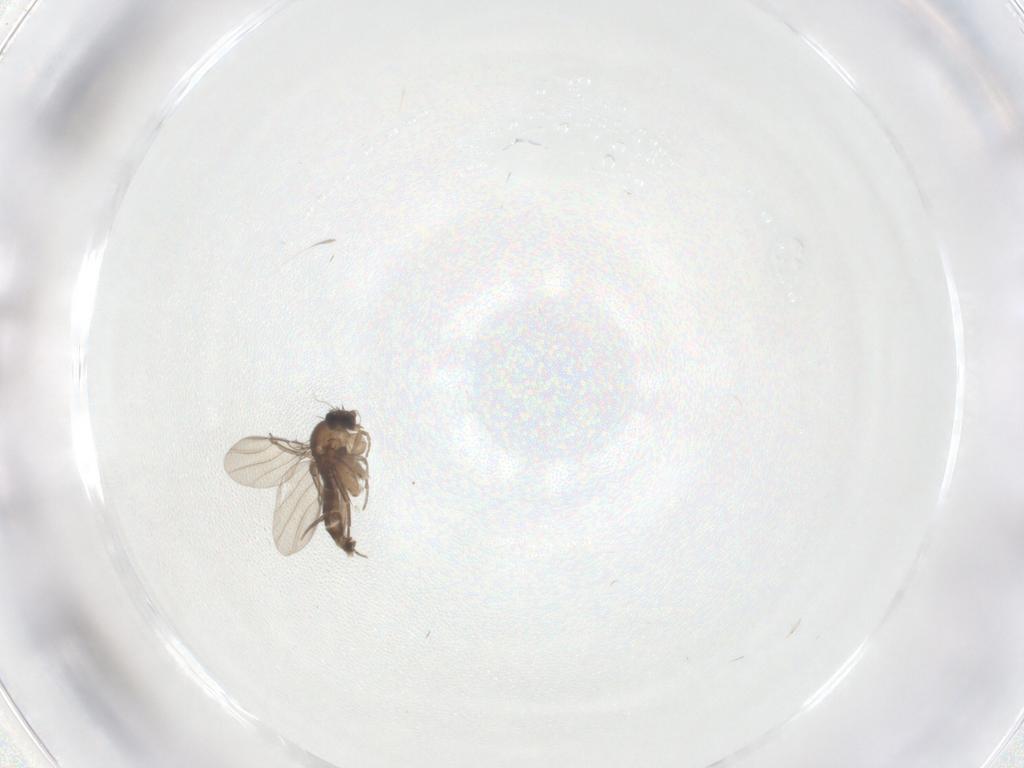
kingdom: Animalia
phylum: Arthropoda
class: Insecta
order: Diptera
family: Phoridae
